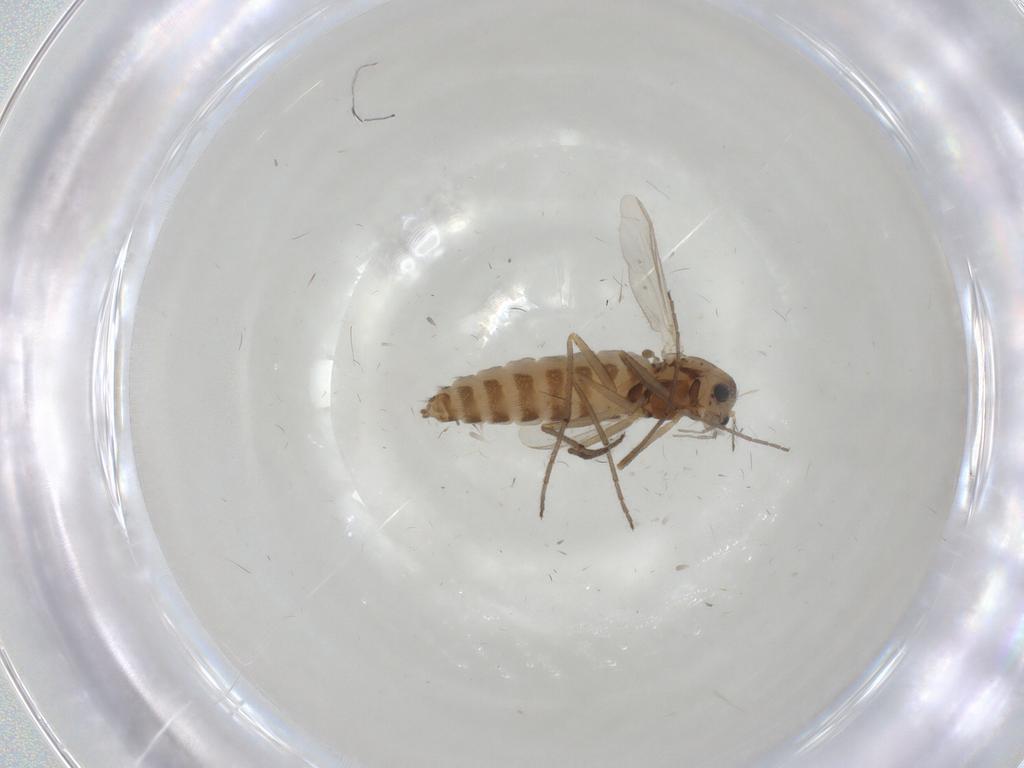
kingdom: Animalia
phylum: Arthropoda
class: Insecta
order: Diptera
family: Chironomidae
